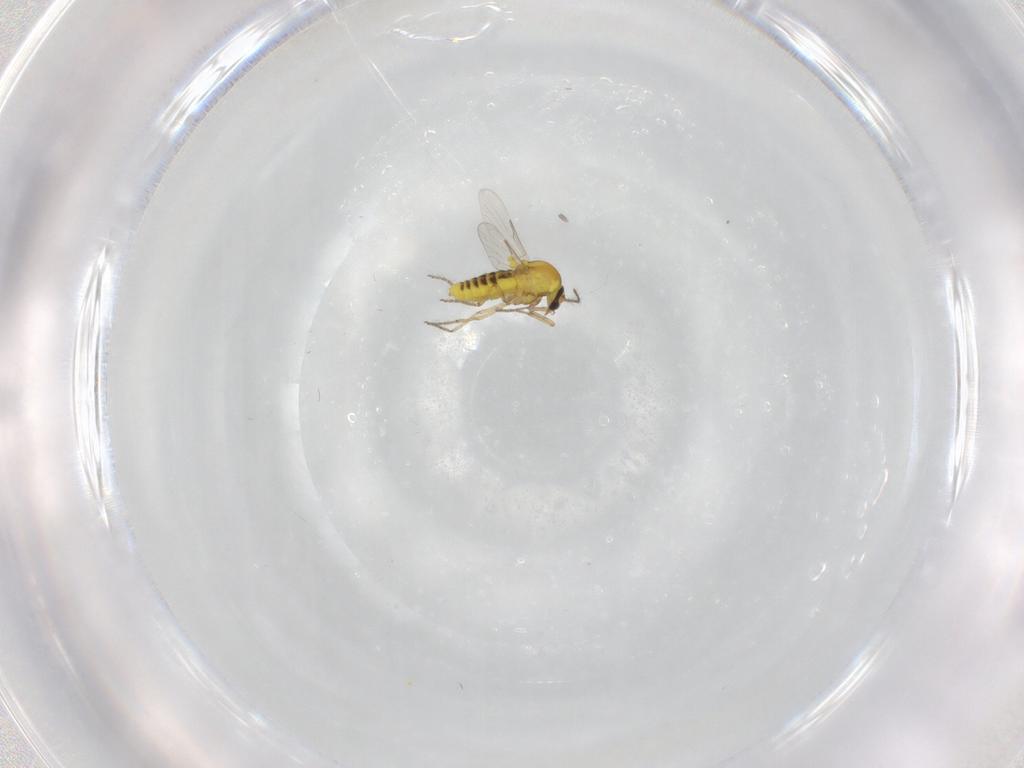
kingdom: Animalia
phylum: Arthropoda
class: Insecta
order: Diptera
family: Ceratopogonidae
